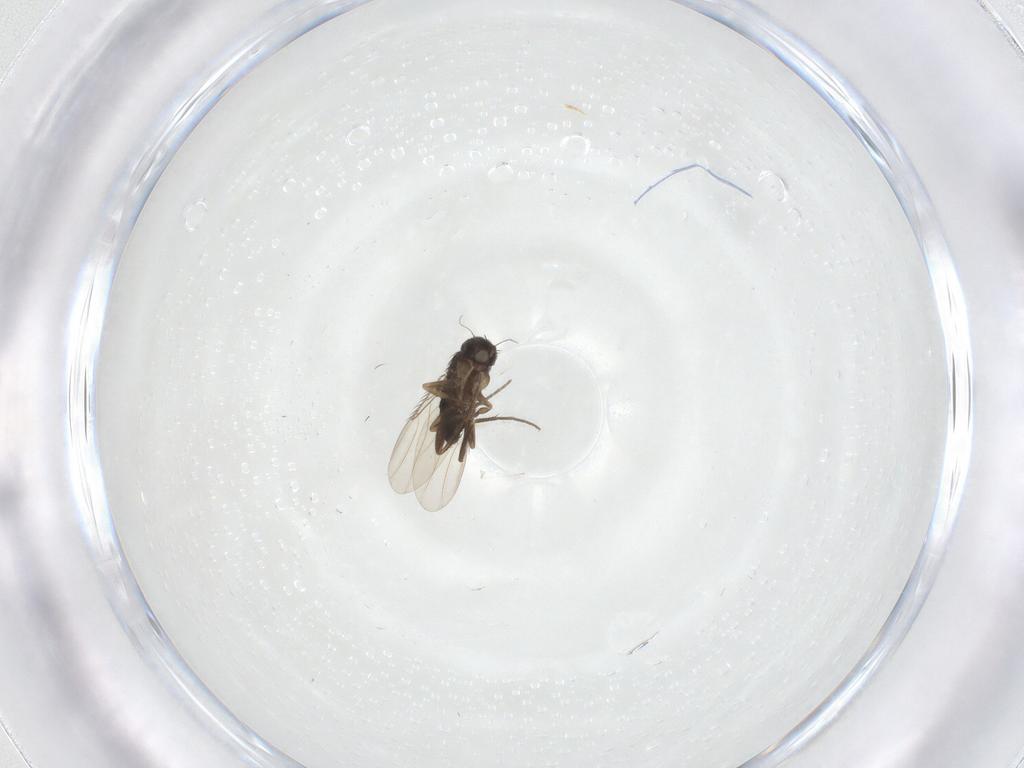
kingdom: Animalia
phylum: Arthropoda
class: Insecta
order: Diptera
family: Phoridae
